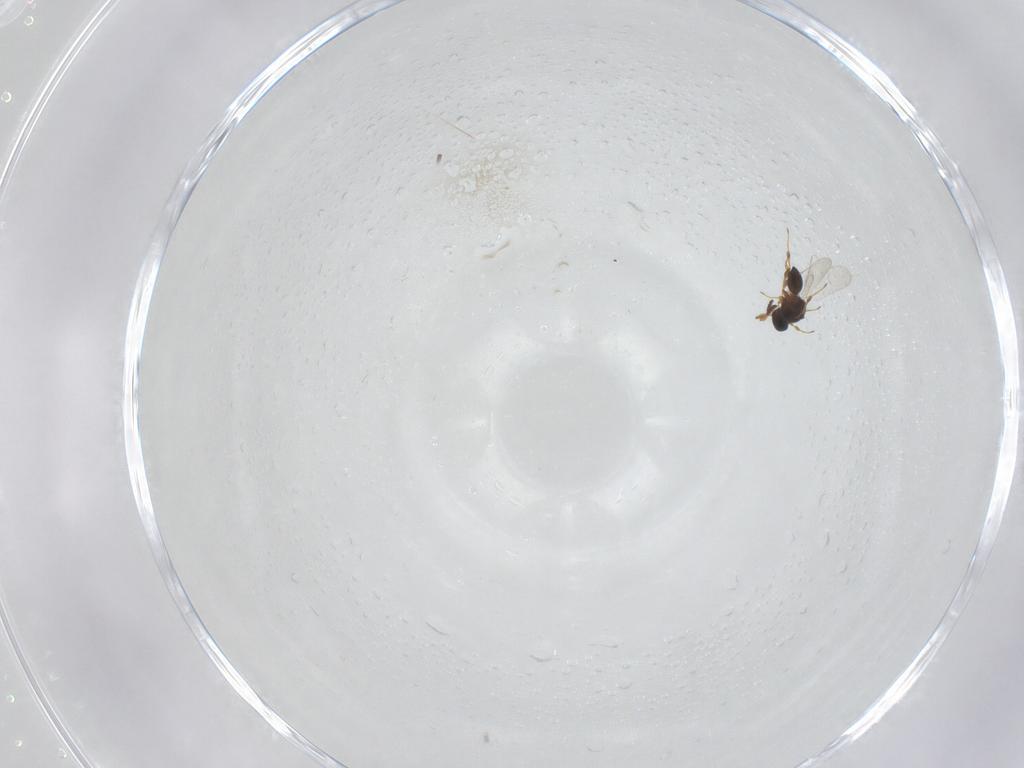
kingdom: Animalia
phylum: Arthropoda
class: Insecta
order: Hymenoptera
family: Platygastridae
